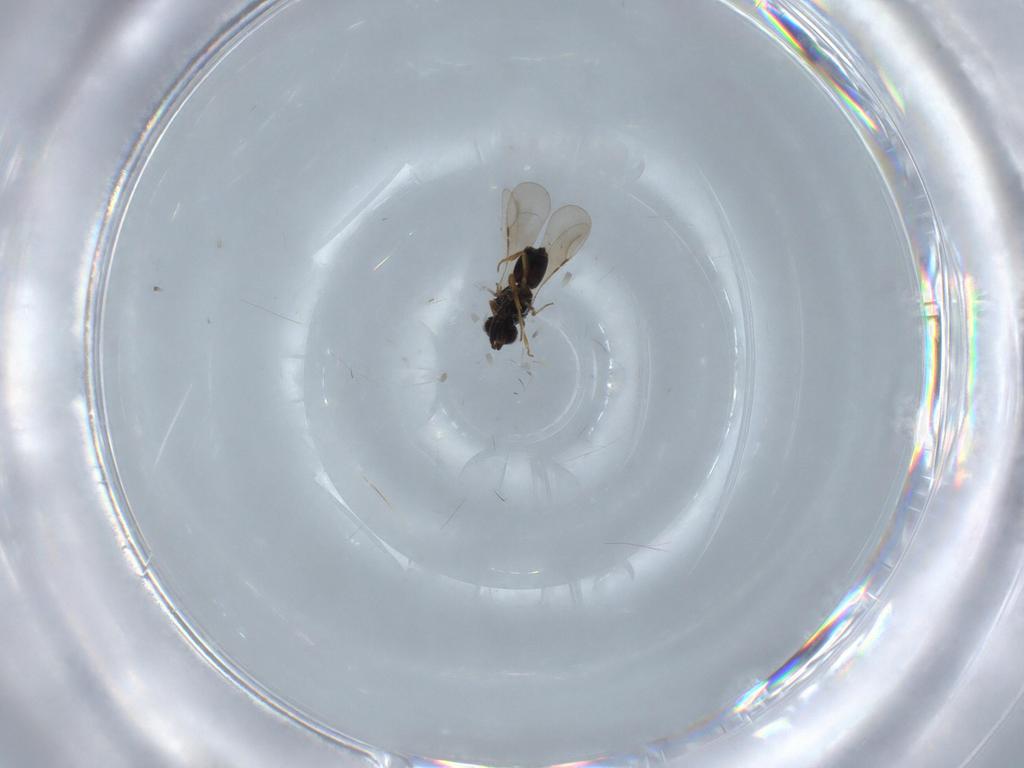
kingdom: Animalia
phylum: Arthropoda
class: Insecta
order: Hymenoptera
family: Ceraphronidae
